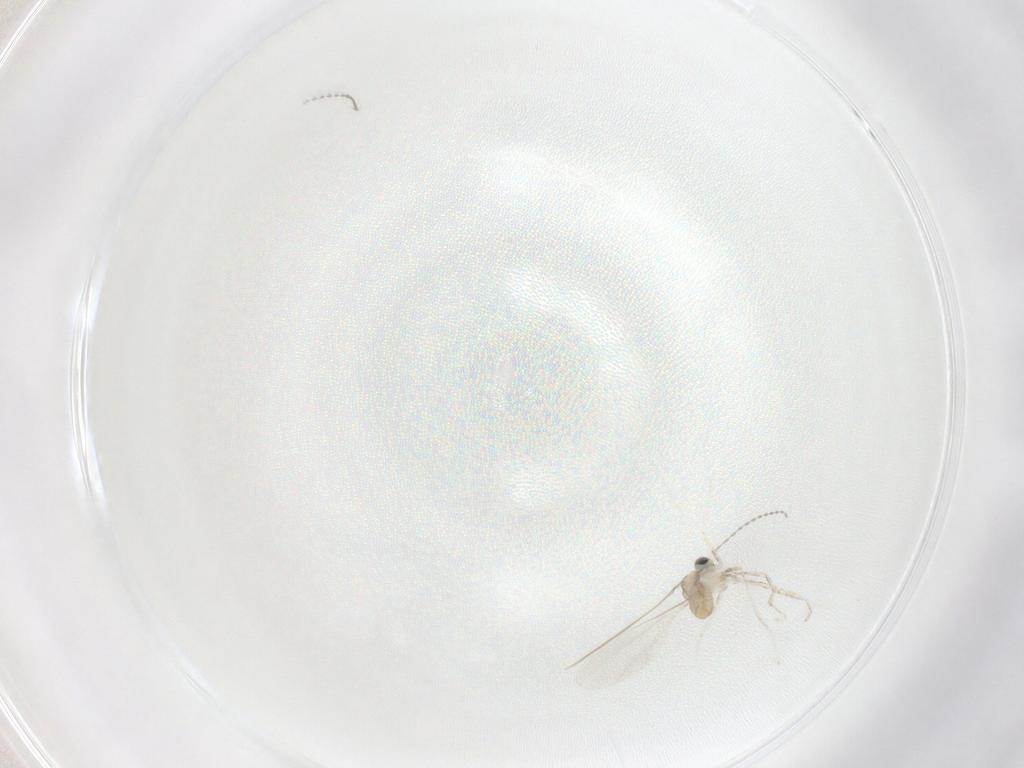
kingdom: Animalia
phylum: Arthropoda
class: Insecta
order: Diptera
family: Cecidomyiidae
